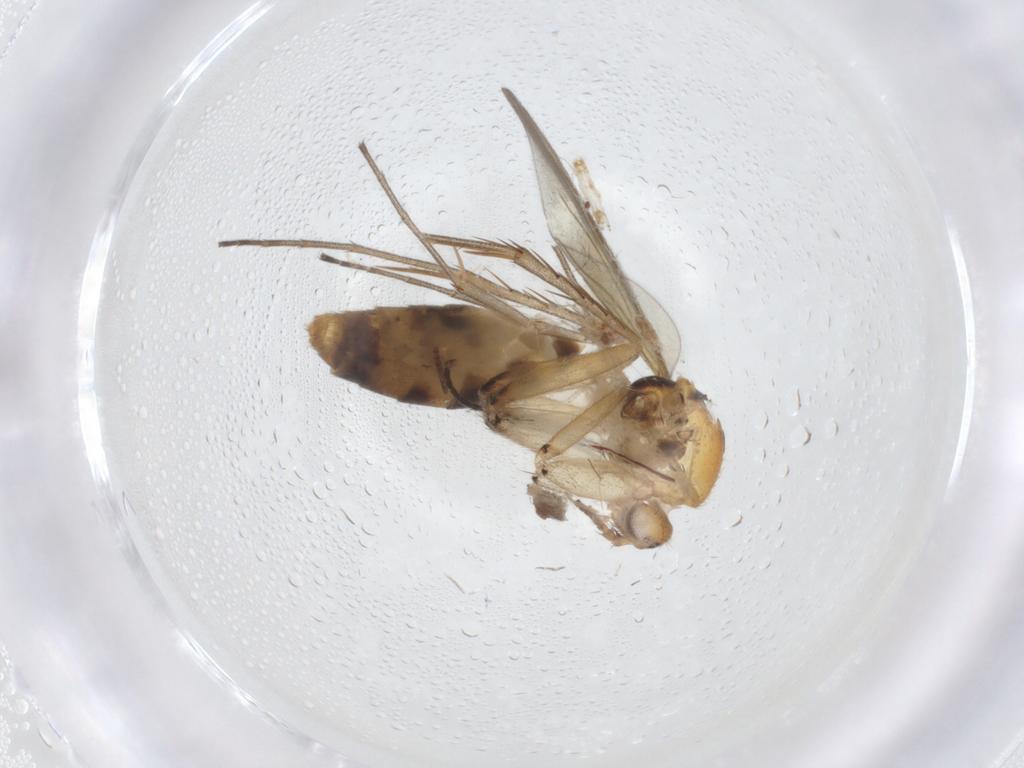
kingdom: Animalia
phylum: Arthropoda
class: Insecta
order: Diptera
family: Mycetophilidae
